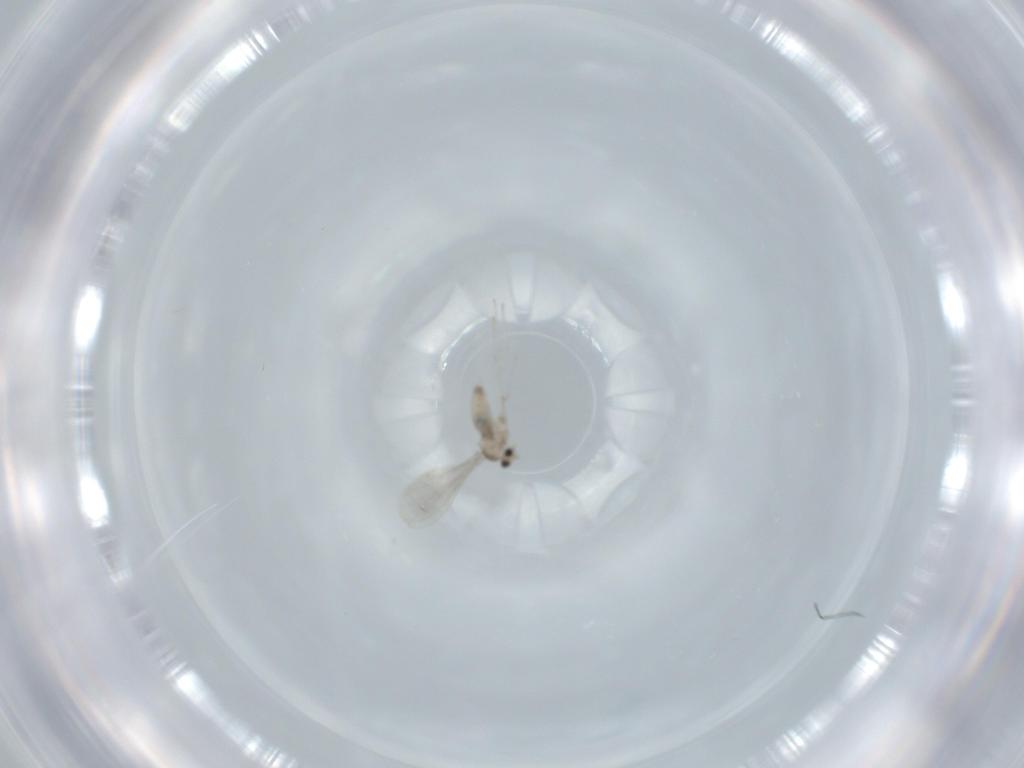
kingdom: Animalia
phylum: Arthropoda
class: Insecta
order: Diptera
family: Cecidomyiidae
